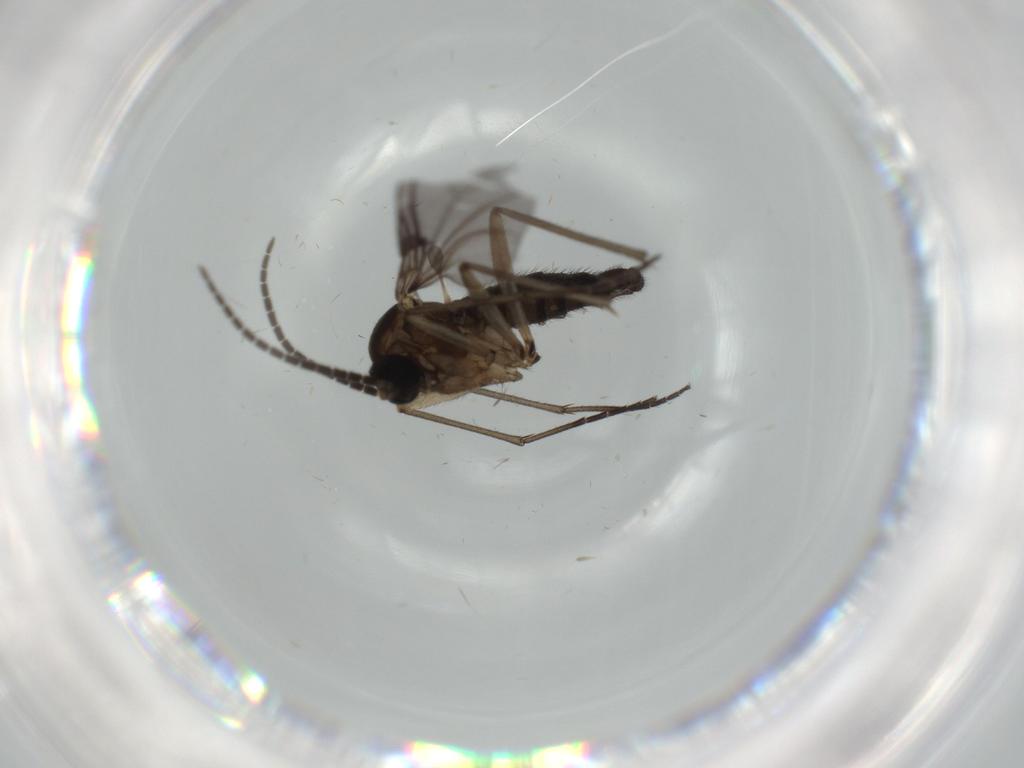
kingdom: Animalia
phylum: Arthropoda
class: Insecta
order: Diptera
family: Sciaridae
